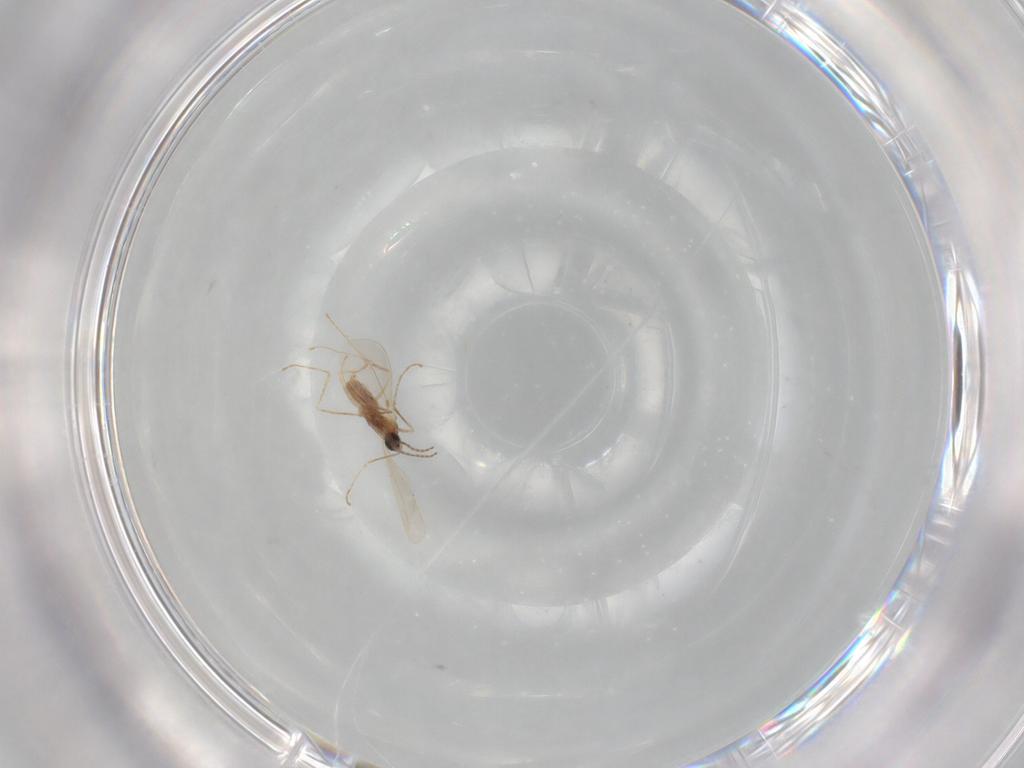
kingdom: Animalia
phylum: Arthropoda
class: Insecta
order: Diptera
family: Cecidomyiidae
